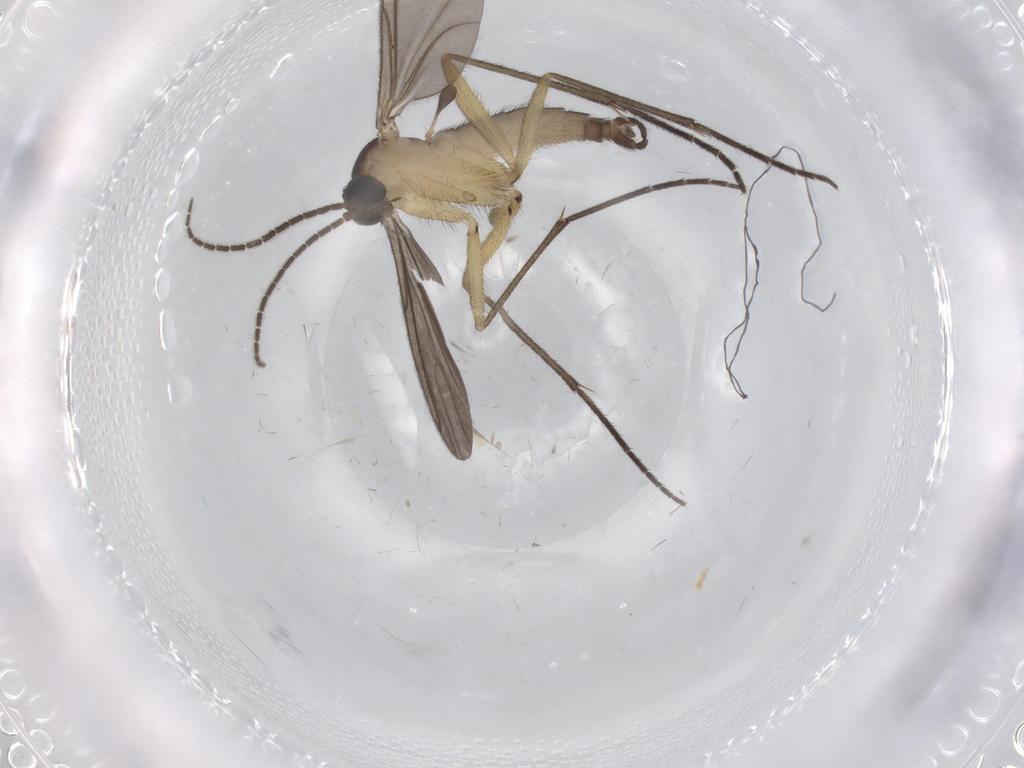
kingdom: Animalia
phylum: Arthropoda
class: Insecta
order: Diptera
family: Sciaridae
